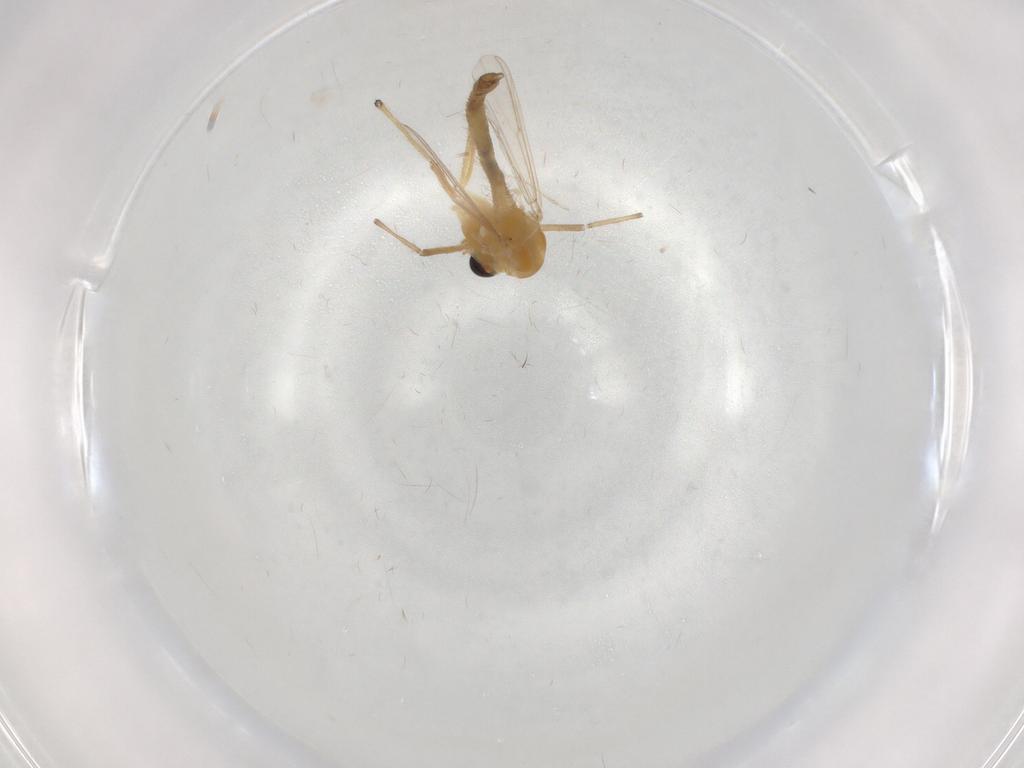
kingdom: Animalia
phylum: Arthropoda
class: Insecta
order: Diptera
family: Chironomidae
